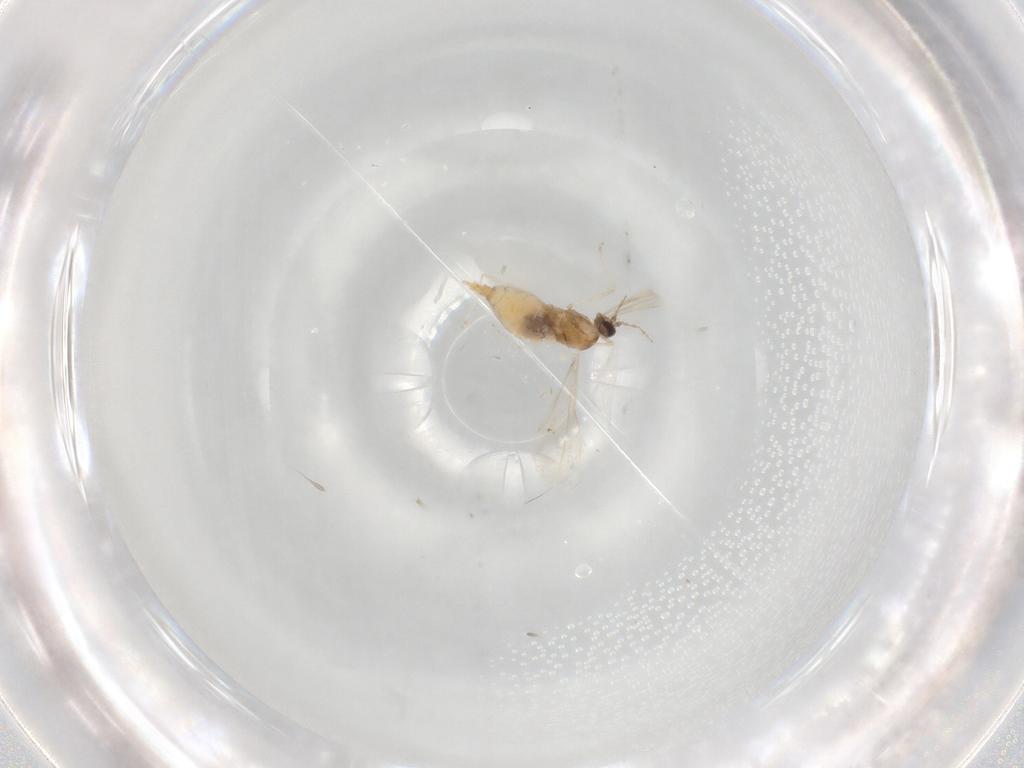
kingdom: Animalia
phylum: Arthropoda
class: Insecta
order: Diptera
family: Cecidomyiidae
